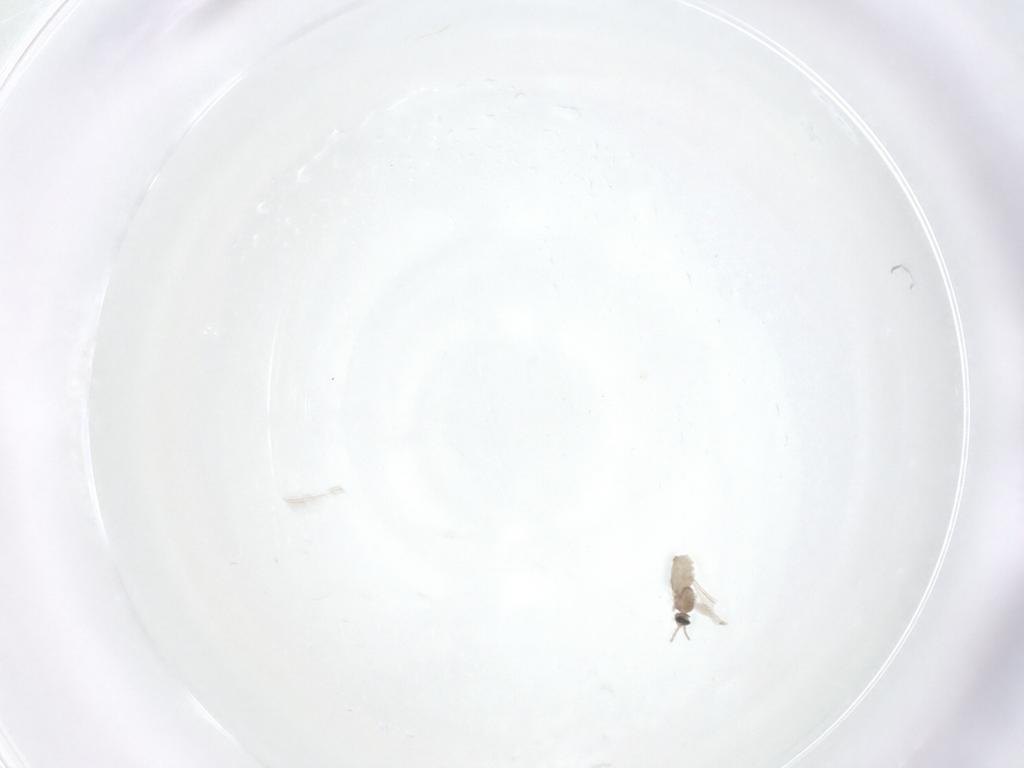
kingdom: Animalia
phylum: Arthropoda
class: Insecta
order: Diptera
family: Cecidomyiidae
